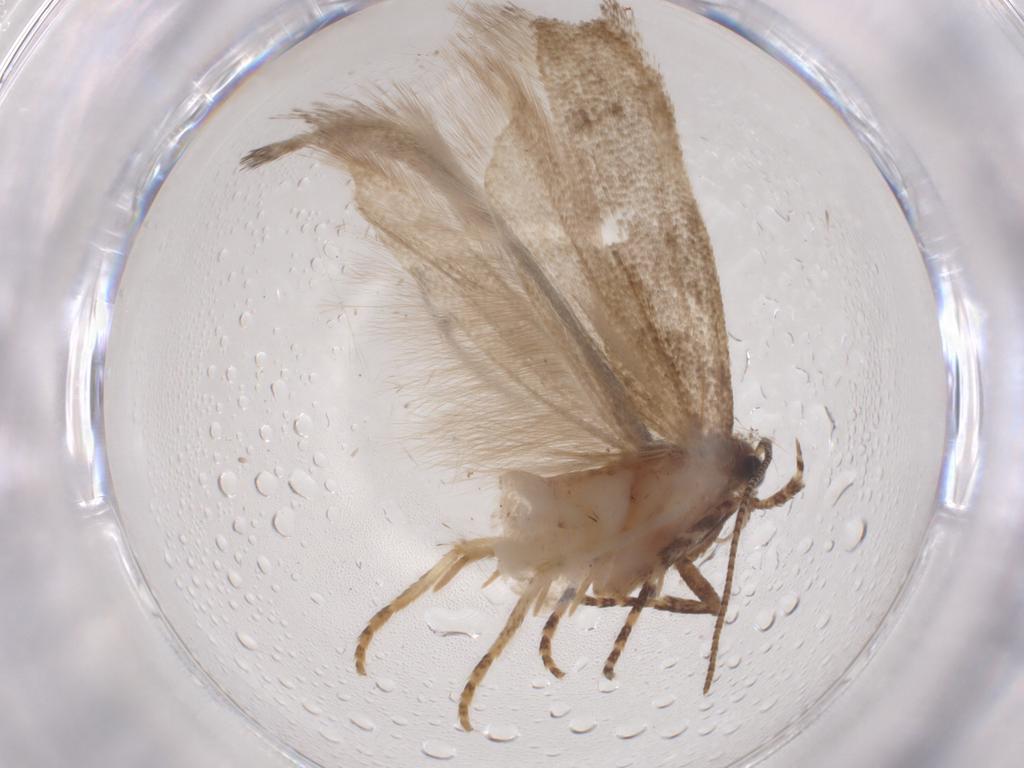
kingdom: Animalia
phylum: Arthropoda
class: Insecta
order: Lepidoptera
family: Gelechiidae
